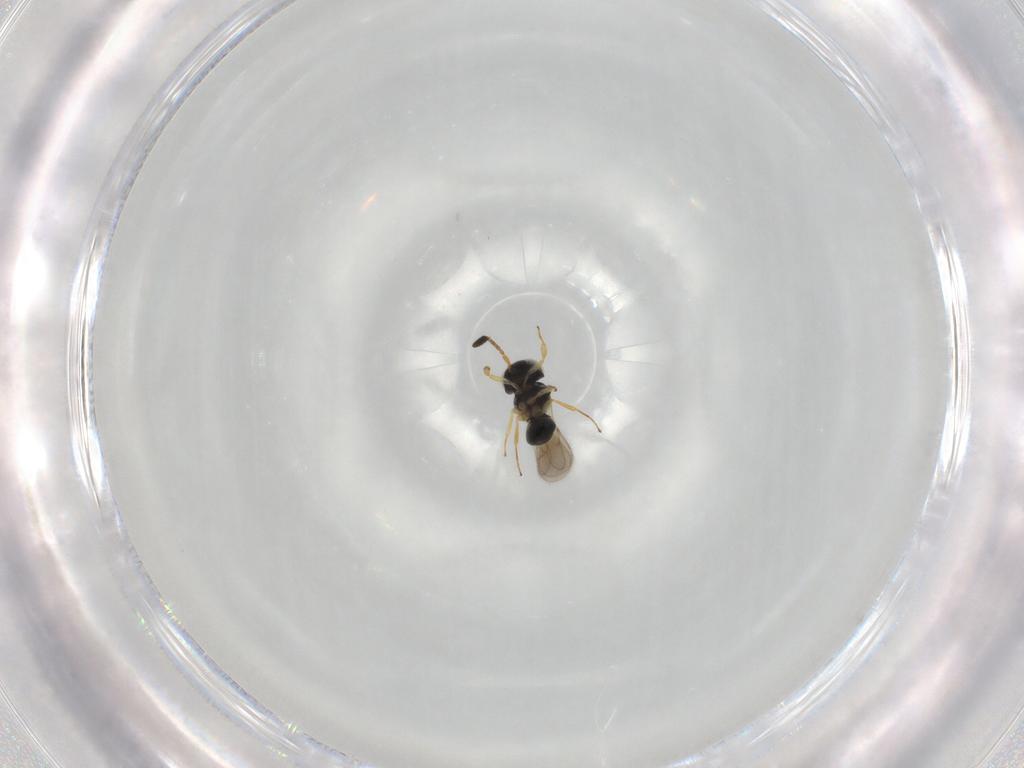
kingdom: Animalia
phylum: Arthropoda
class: Insecta
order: Hymenoptera
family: Scelionidae
